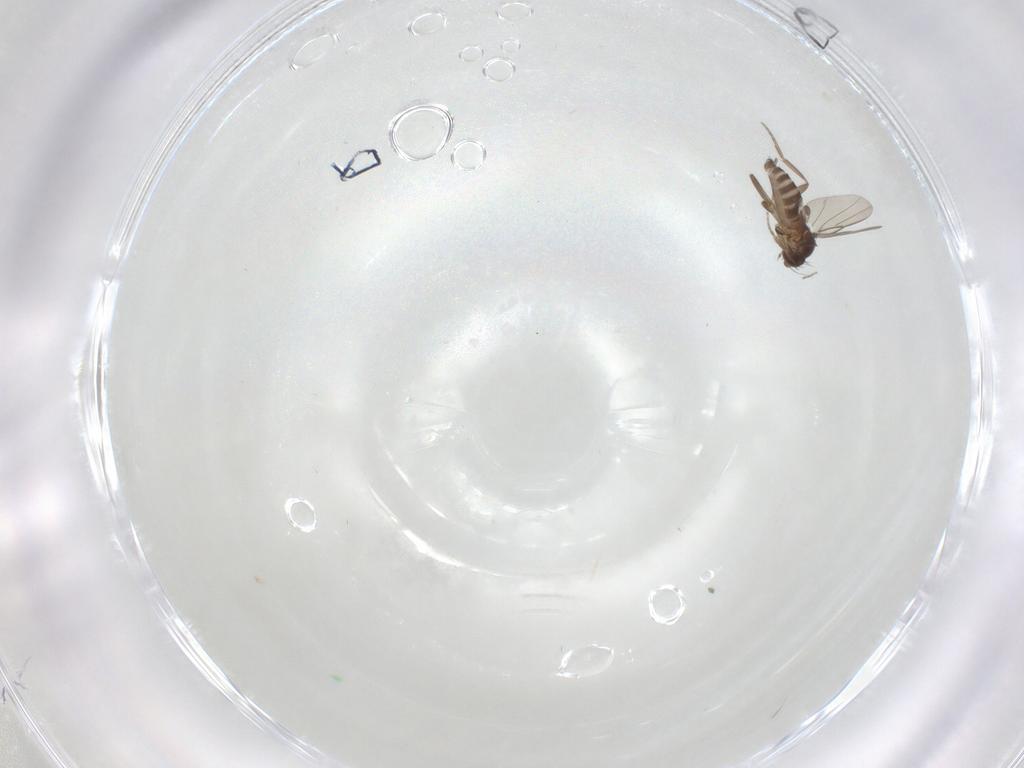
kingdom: Animalia
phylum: Arthropoda
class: Insecta
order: Diptera
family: Phoridae
